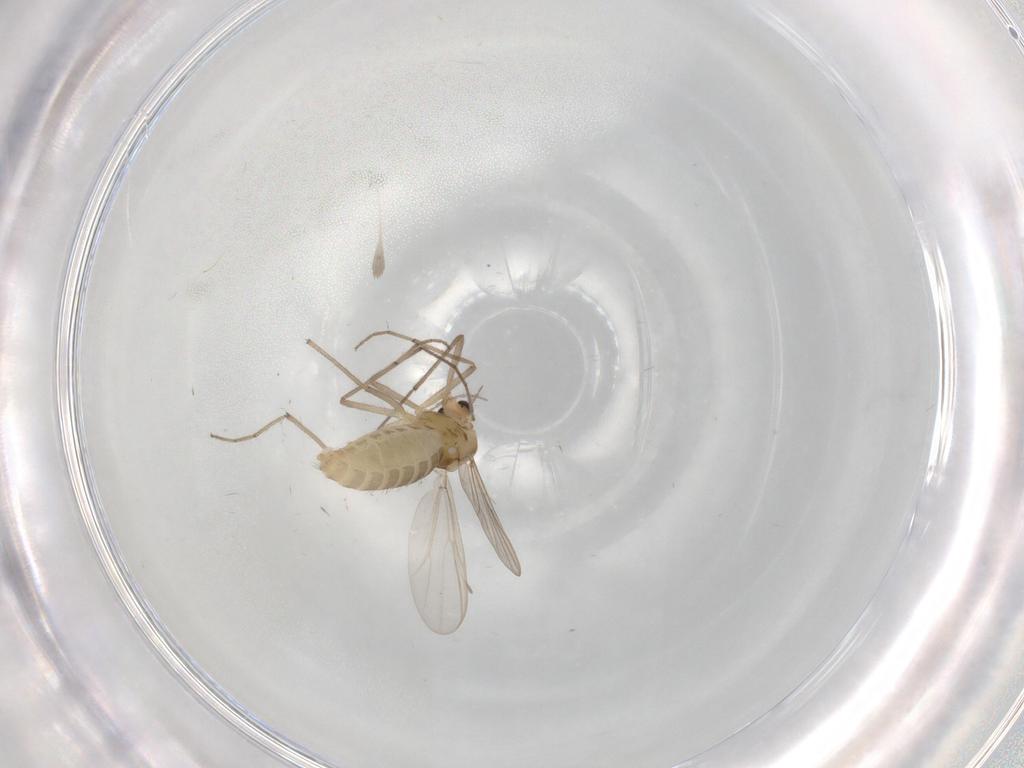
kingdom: Animalia
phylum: Arthropoda
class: Insecta
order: Diptera
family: Chironomidae
